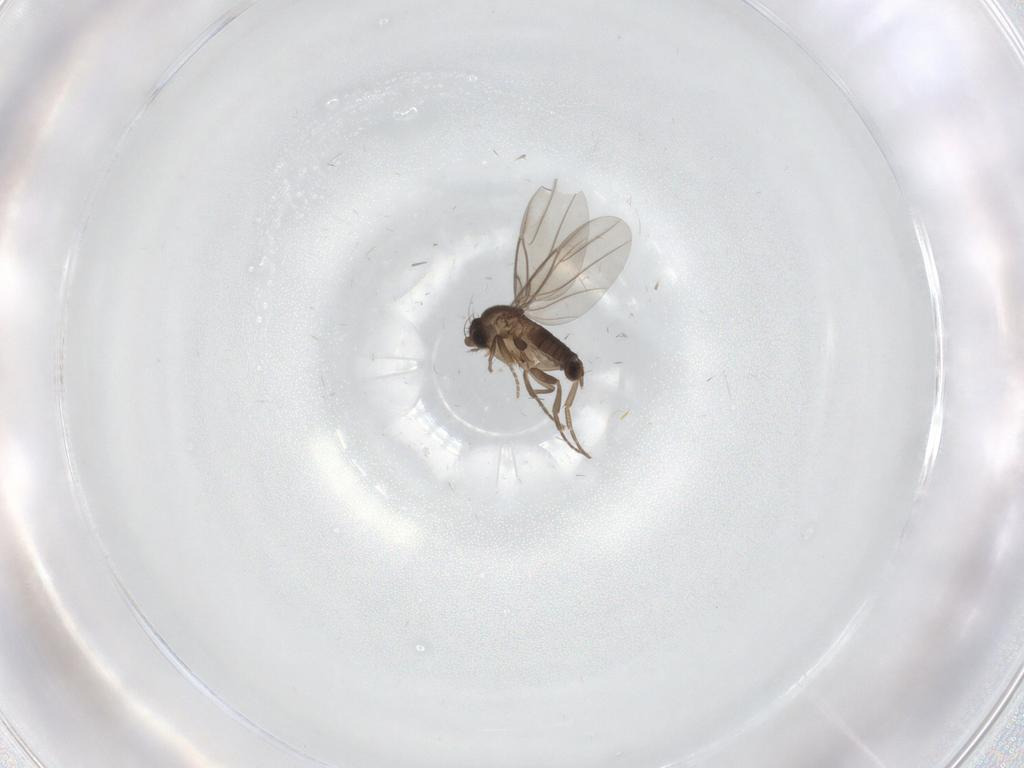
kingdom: Animalia
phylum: Arthropoda
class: Insecta
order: Diptera
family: Phoridae
